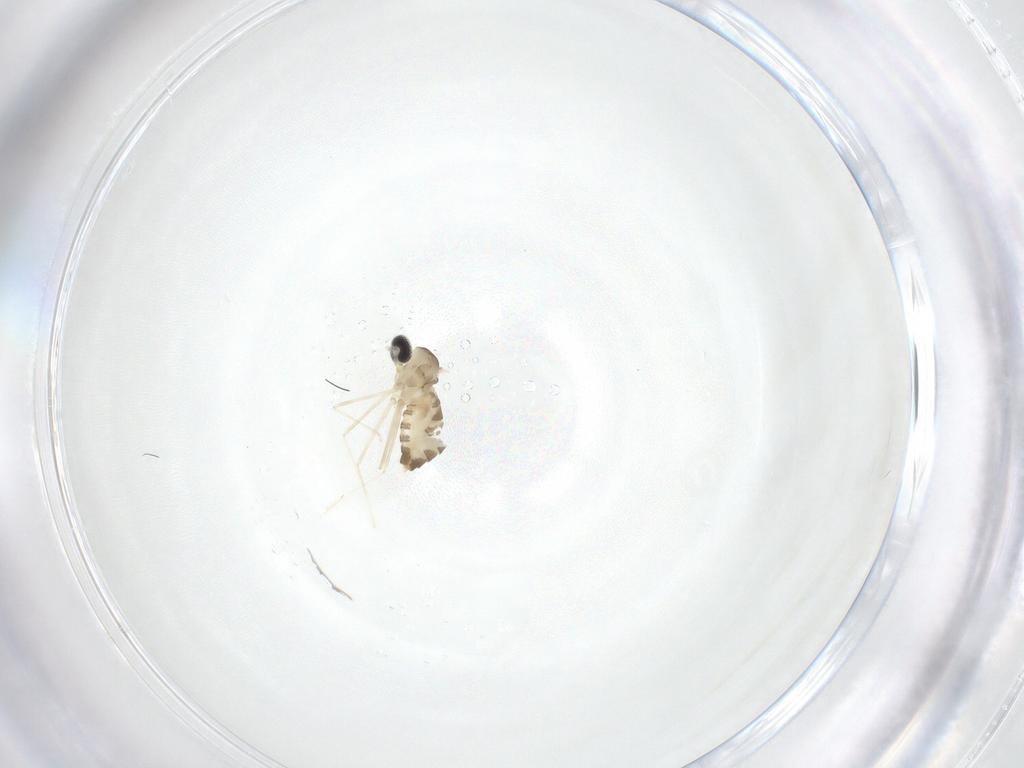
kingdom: Animalia
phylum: Arthropoda
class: Insecta
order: Diptera
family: Cecidomyiidae
